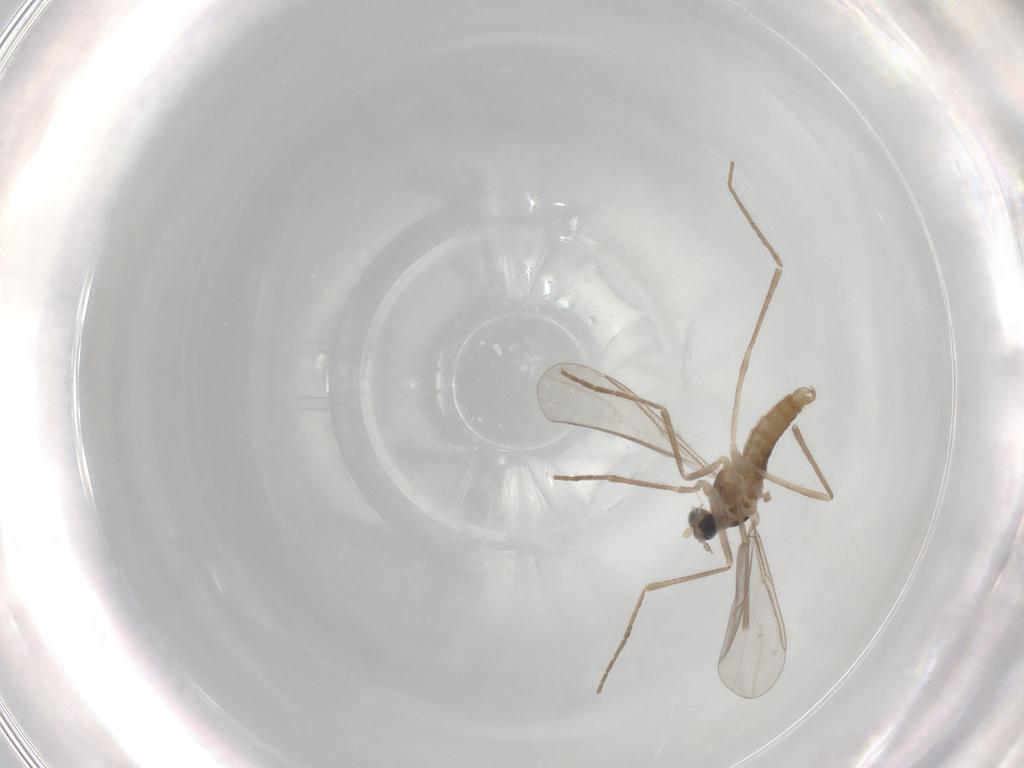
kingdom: Animalia
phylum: Arthropoda
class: Insecta
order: Diptera
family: Cecidomyiidae
